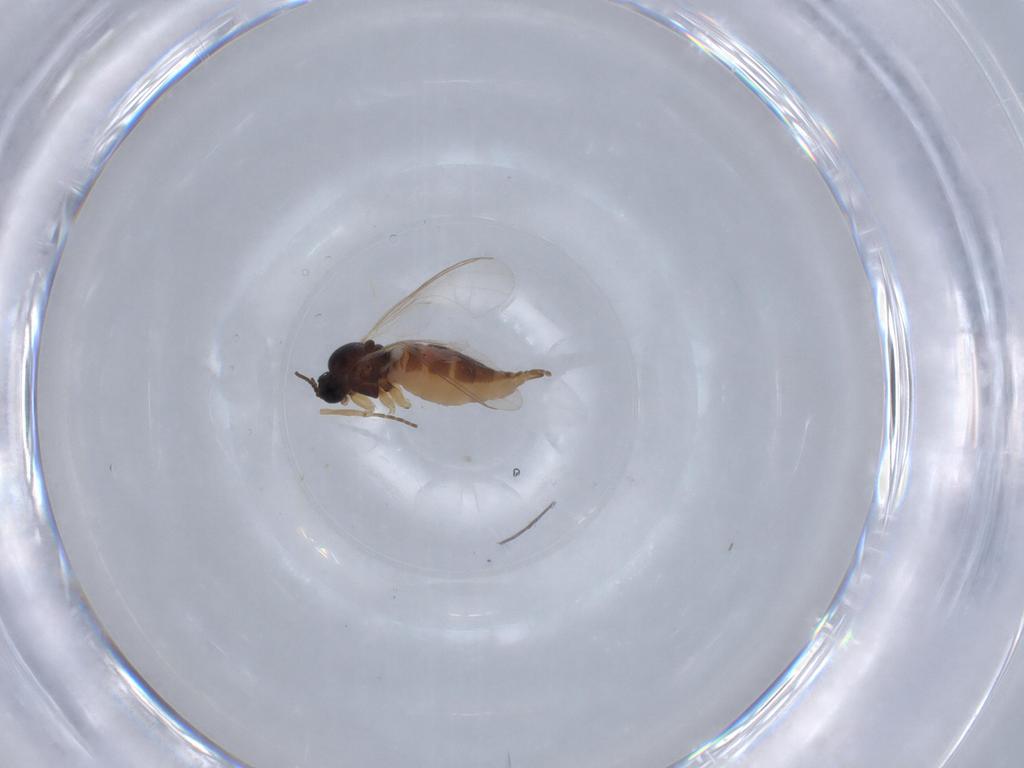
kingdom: Animalia
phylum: Arthropoda
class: Insecta
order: Diptera
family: Sciaridae
